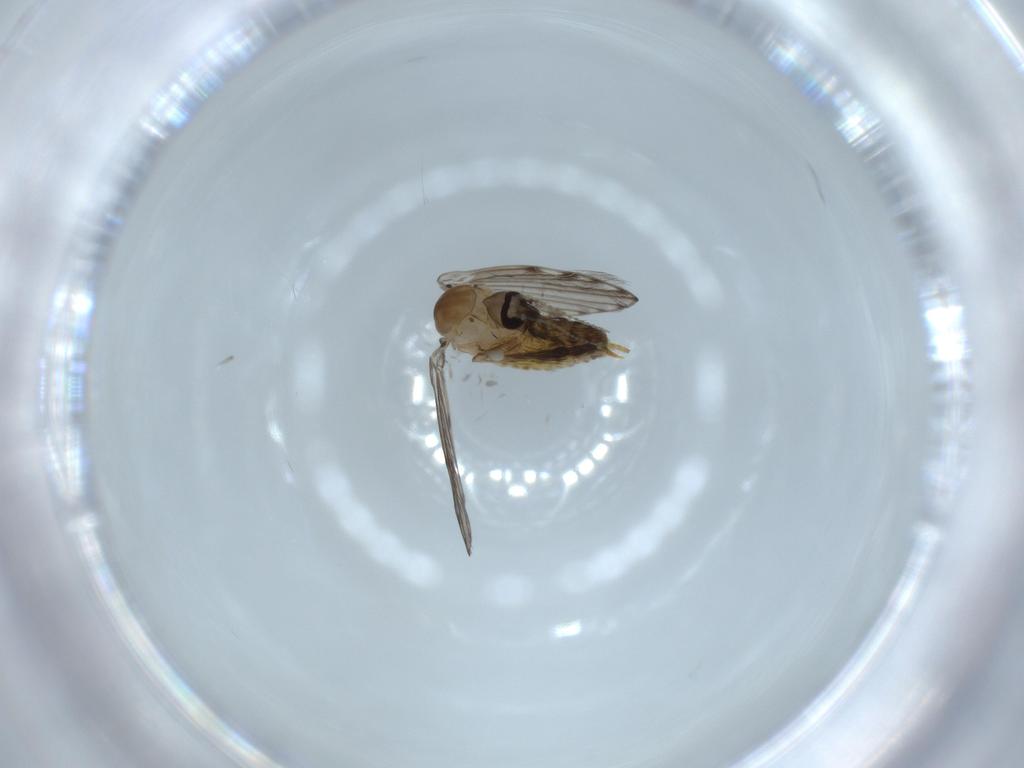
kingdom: Animalia
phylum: Arthropoda
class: Insecta
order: Diptera
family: Psychodidae
